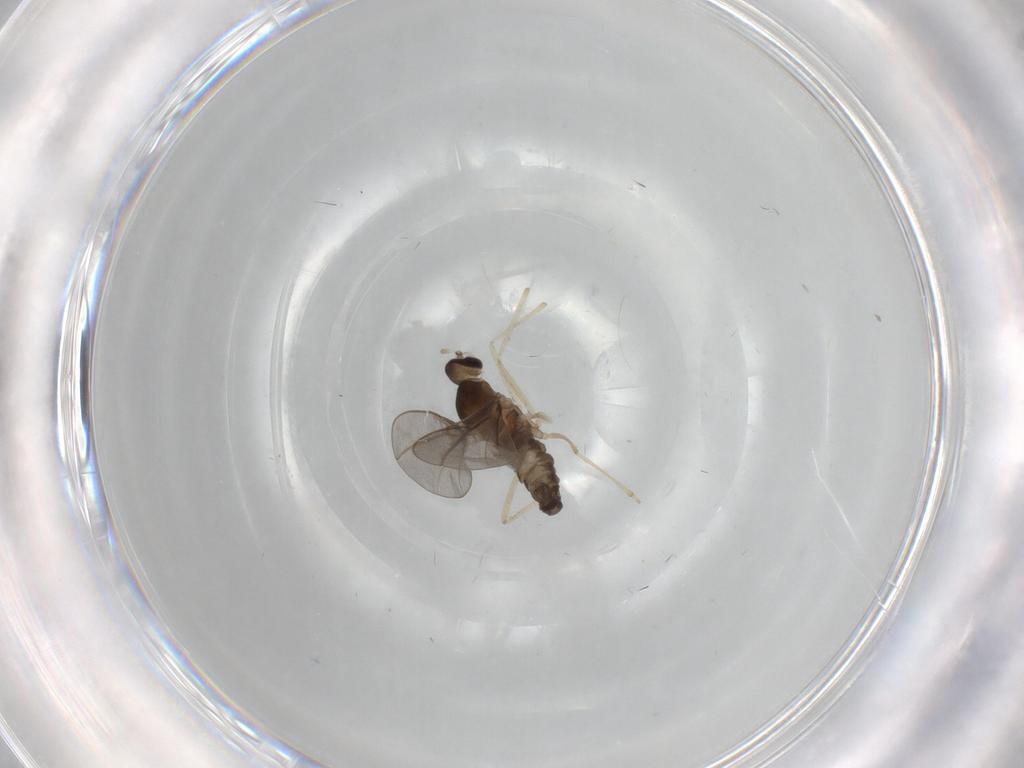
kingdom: Animalia
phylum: Arthropoda
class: Insecta
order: Diptera
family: Cecidomyiidae
